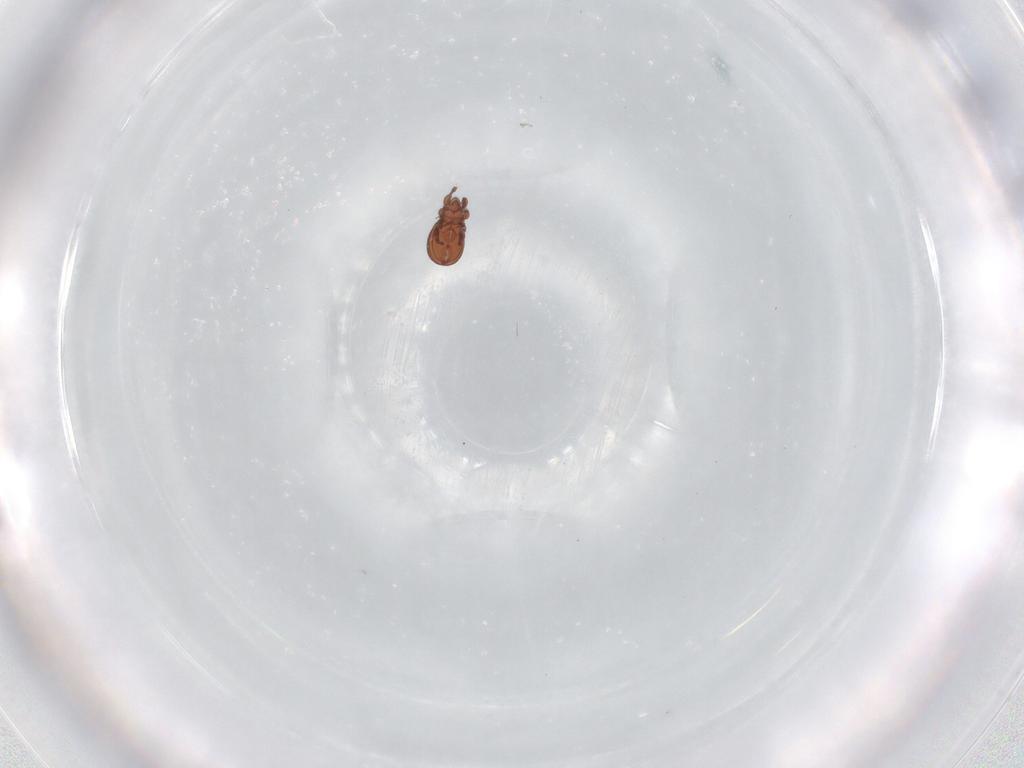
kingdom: Animalia
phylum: Arthropoda
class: Arachnida
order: Sarcoptiformes
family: Eremaeidae
